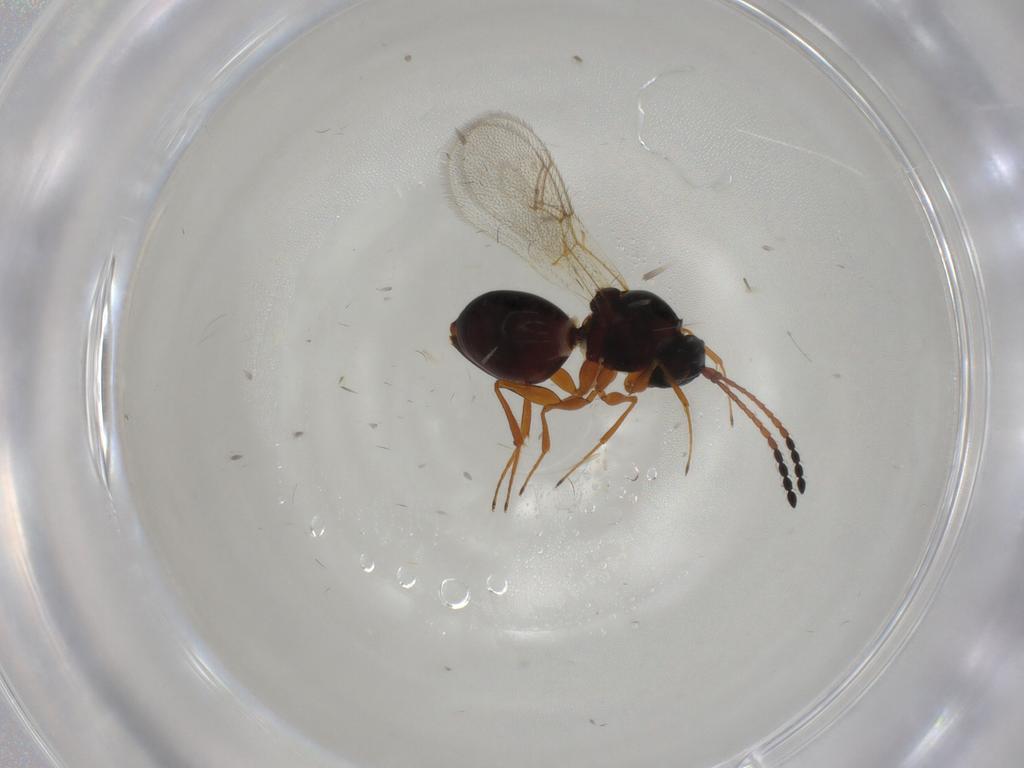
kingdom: Animalia
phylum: Arthropoda
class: Insecta
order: Hymenoptera
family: Figitidae
